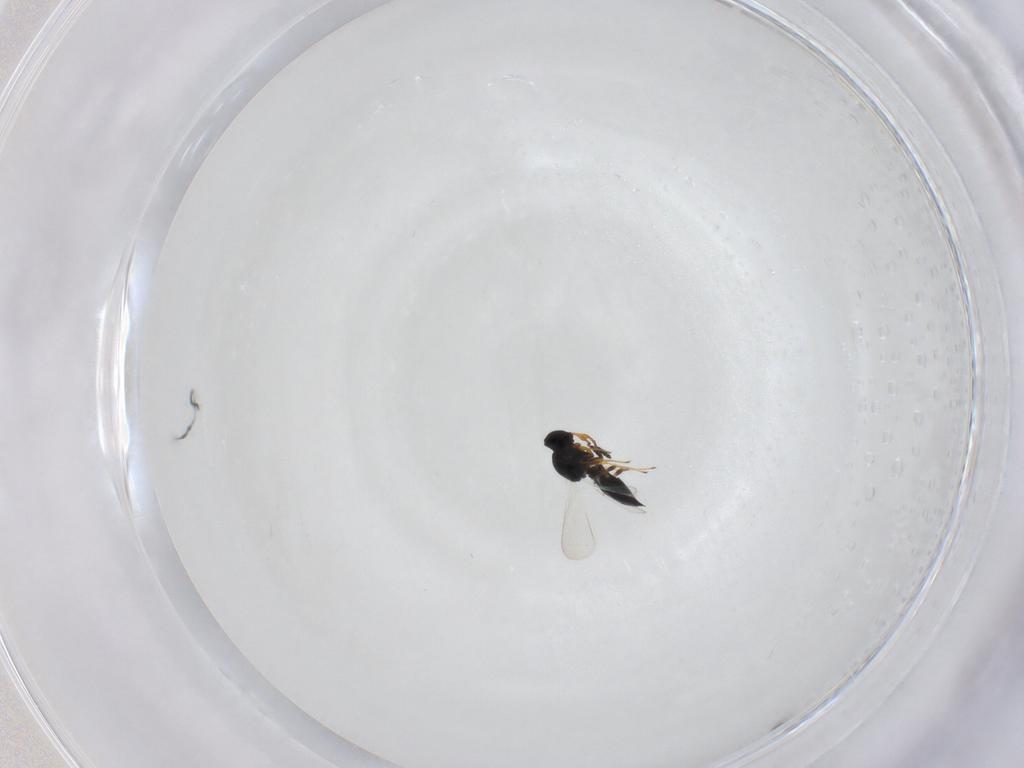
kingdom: Animalia
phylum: Arthropoda
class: Insecta
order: Hymenoptera
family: Platygastridae
